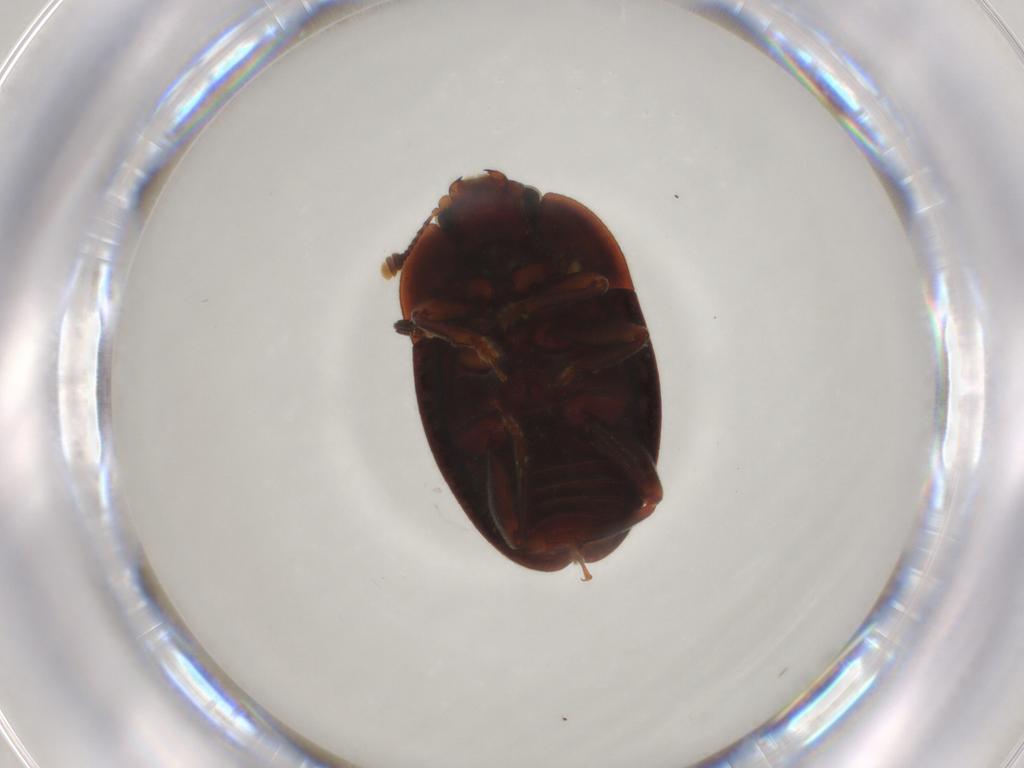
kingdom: Animalia
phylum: Arthropoda
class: Insecta
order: Coleoptera
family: Nitidulidae
